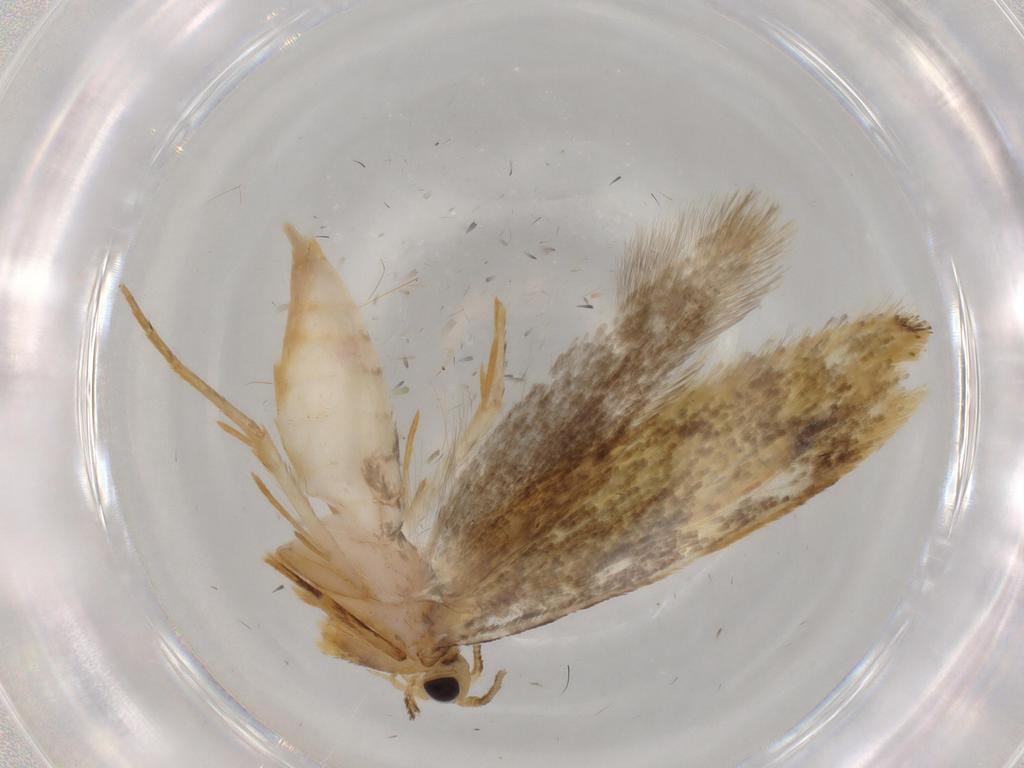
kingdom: Animalia
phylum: Arthropoda
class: Insecta
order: Lepidoptera
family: Tineidae
